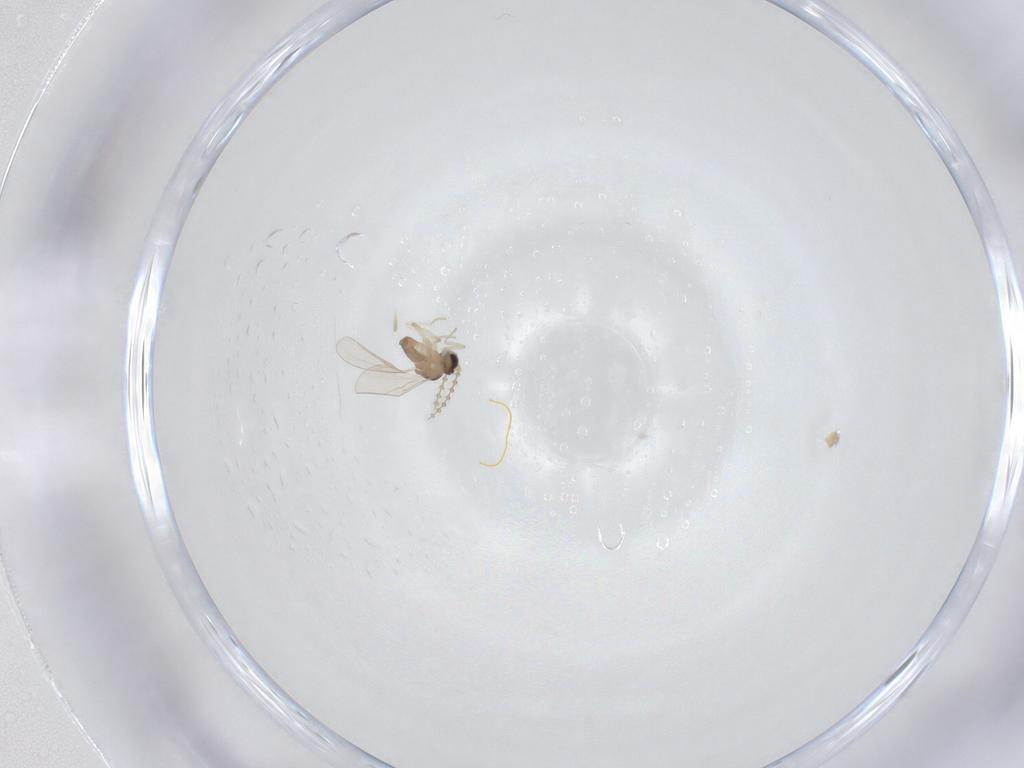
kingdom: Animalia
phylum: Arthropoda
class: Insecta
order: Diptera
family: Cecidomyiidae
